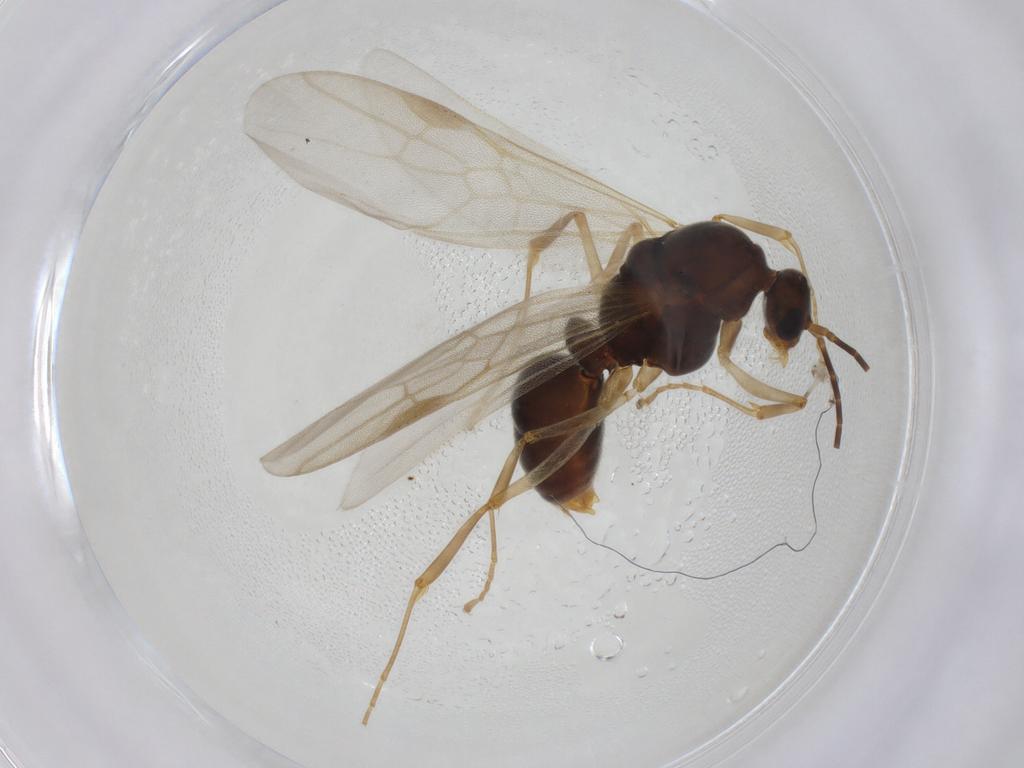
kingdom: Animalia
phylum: Arthropoda
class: Insecta
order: Hymenoptera
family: Formicidae
